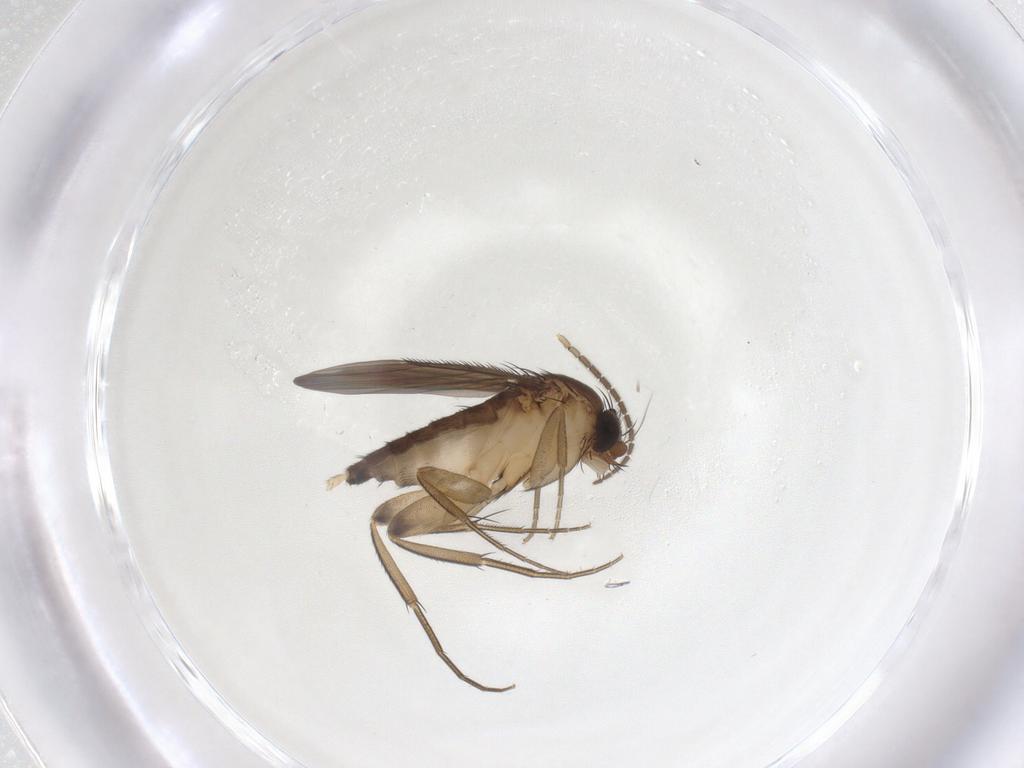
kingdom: Animalia
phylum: Arthropoda
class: Insecta
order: Diptera
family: Phoridae
